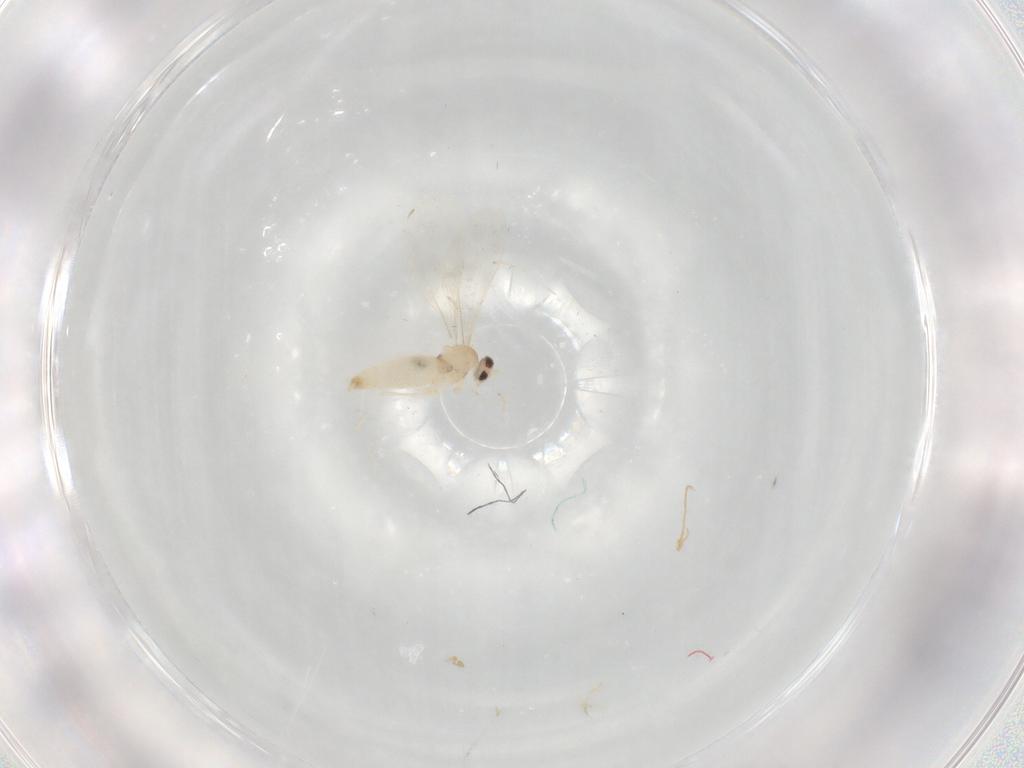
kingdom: Animalia
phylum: Arthropoda
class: Insecta
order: Diptera
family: Cecidomyiidae
